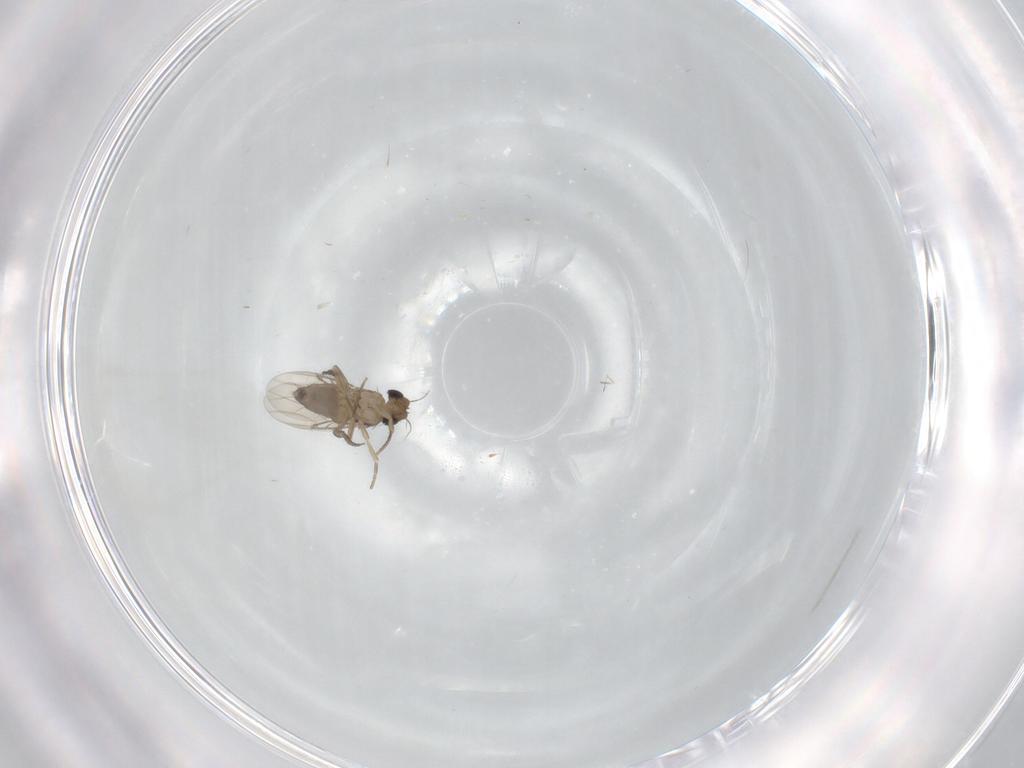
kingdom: Animalia
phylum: Arthropoda
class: Insecta
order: Diptera
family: Phoridae
